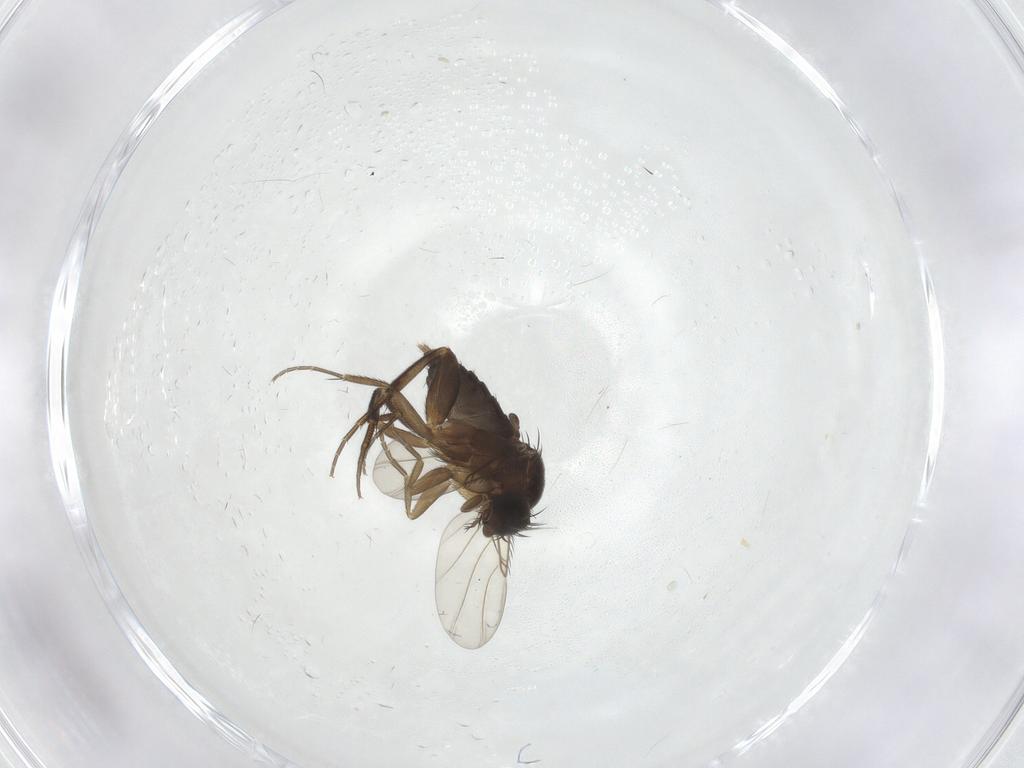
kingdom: Animalia
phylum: Arthropoda
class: Insecta
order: Diptera
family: Phoridae
